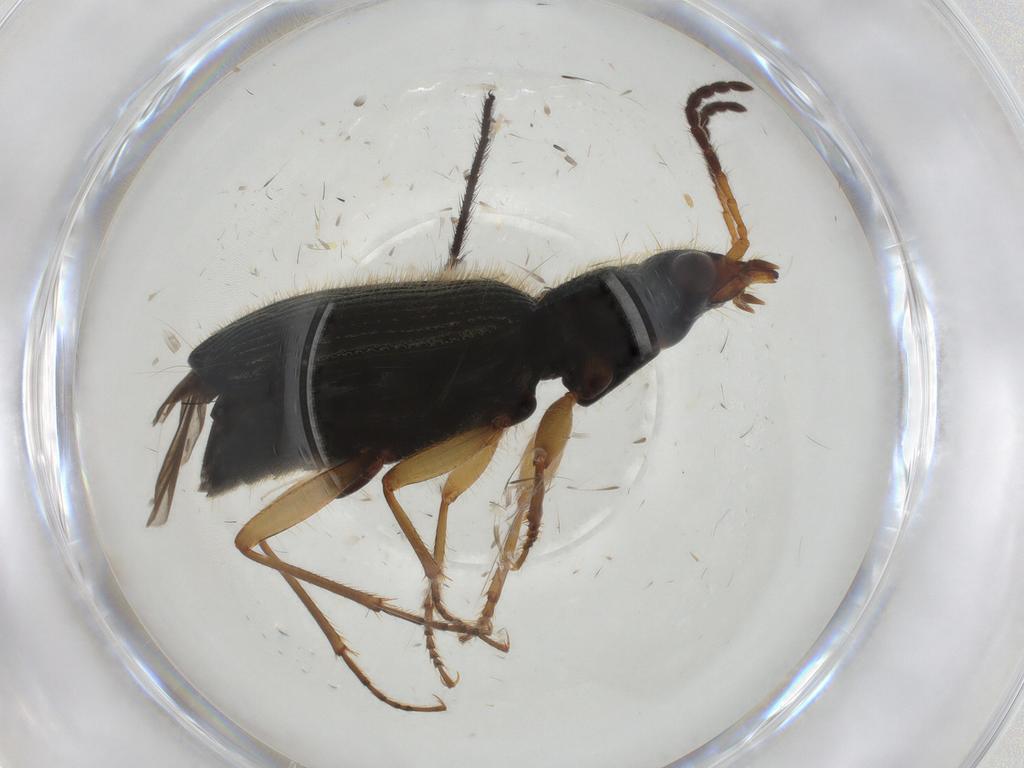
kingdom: Animalia
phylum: Arthropoda
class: Insecta
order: Coleoptera
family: Carabidae
